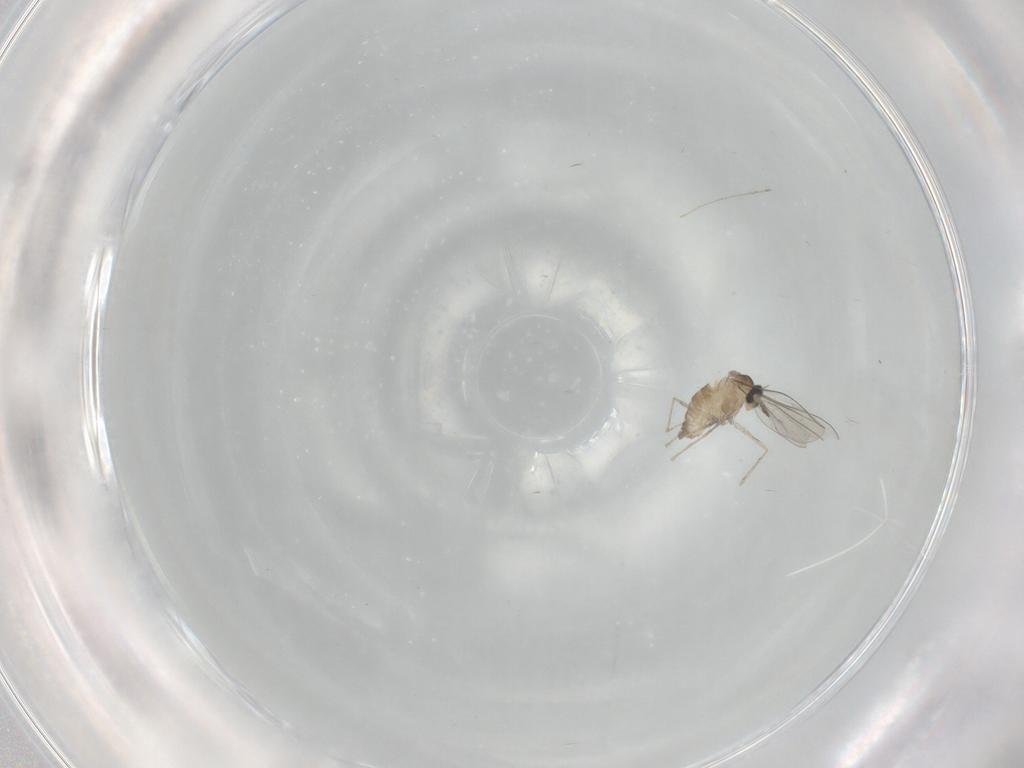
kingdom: Animalia
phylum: Arthropoda
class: Insecta
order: Diptera
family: Cecidomyiidae
